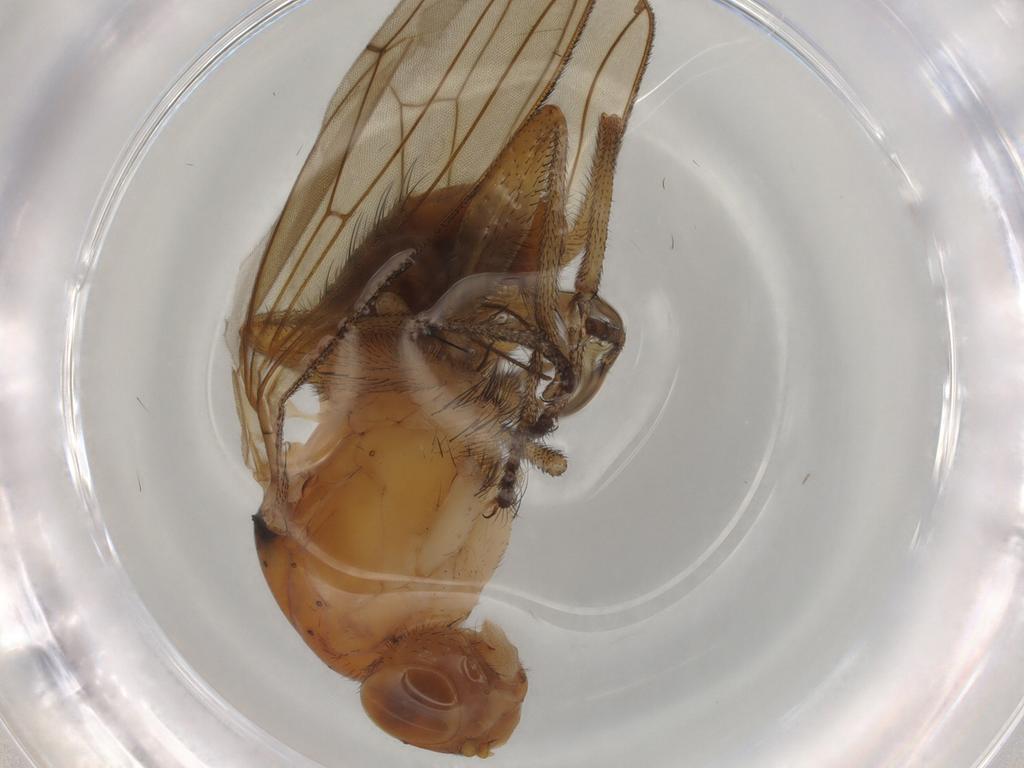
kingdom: Animalia
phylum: Arthropoda
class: Insecta
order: Diptera
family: Heleomyzidae
